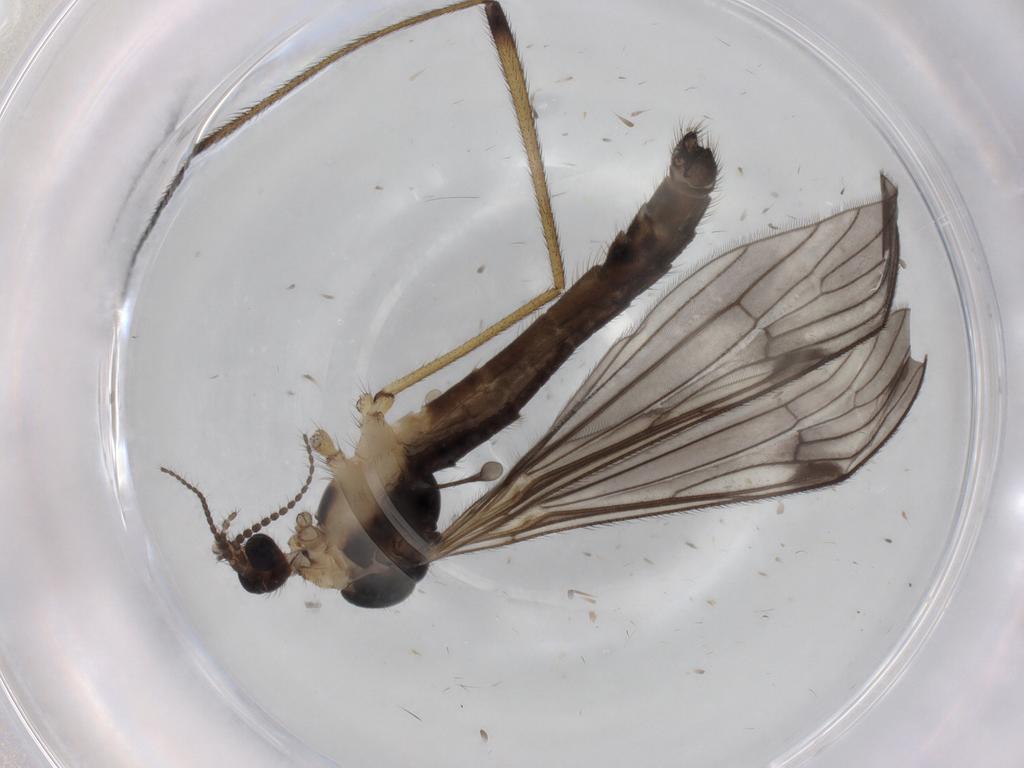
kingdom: Animalia
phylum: Arthropoda
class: Insecta
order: Diptera
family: Limoniidae
